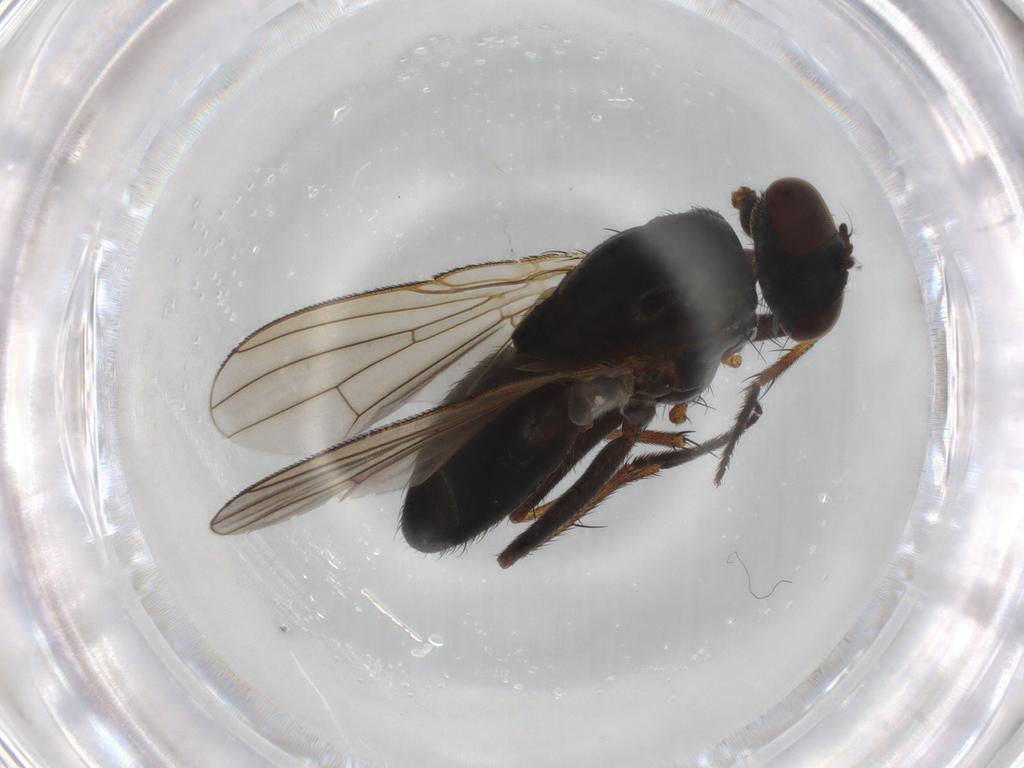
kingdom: Animalia
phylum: Arthropoda
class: Insecta
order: Diptera
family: Muscidae
